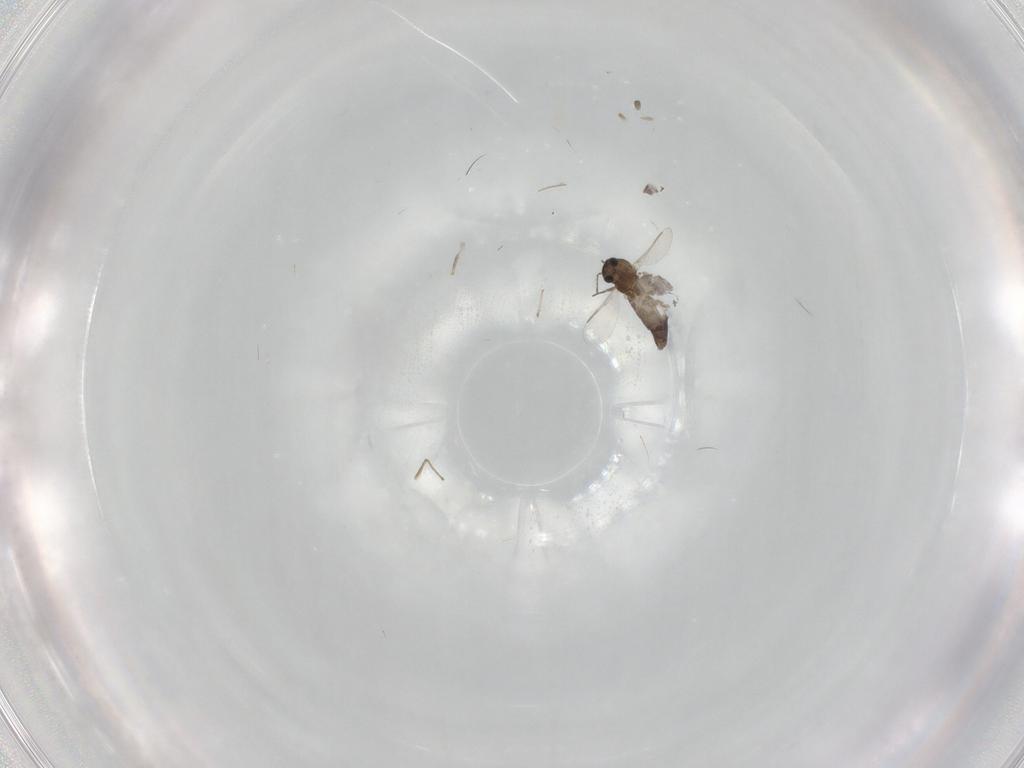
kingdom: Animalia
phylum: Arthropoda
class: Insecta
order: Diptera
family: Chironomidae
